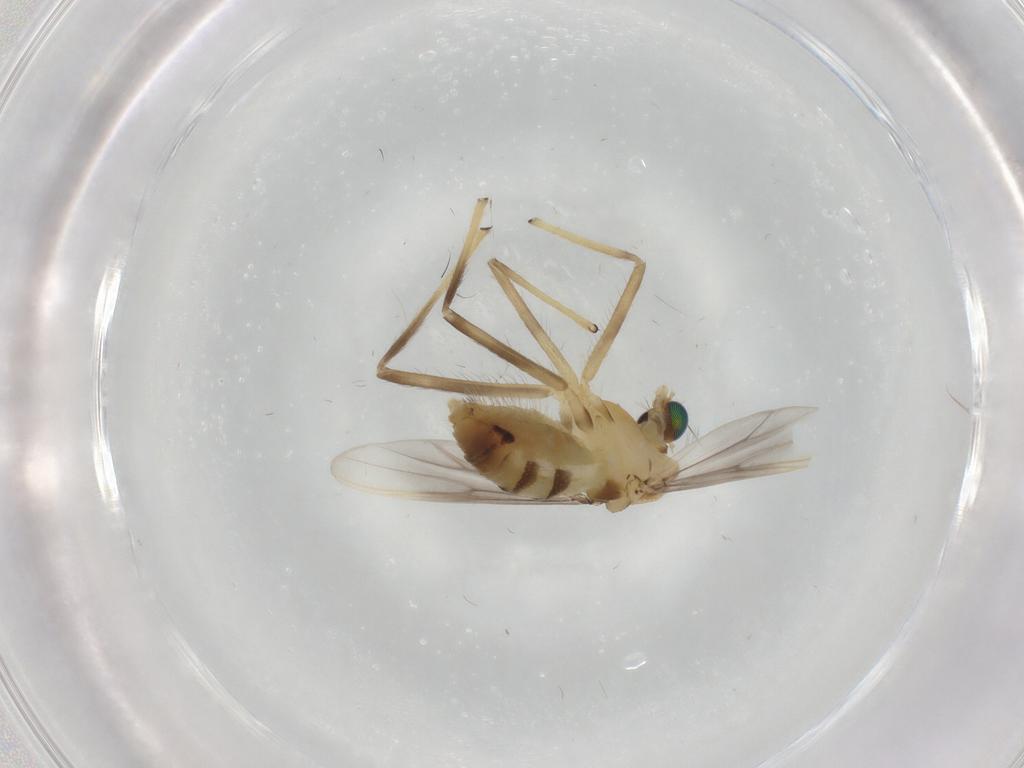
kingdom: Animalia
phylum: Arthropoda
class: Insecta
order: Diptera
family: Chironomidae
